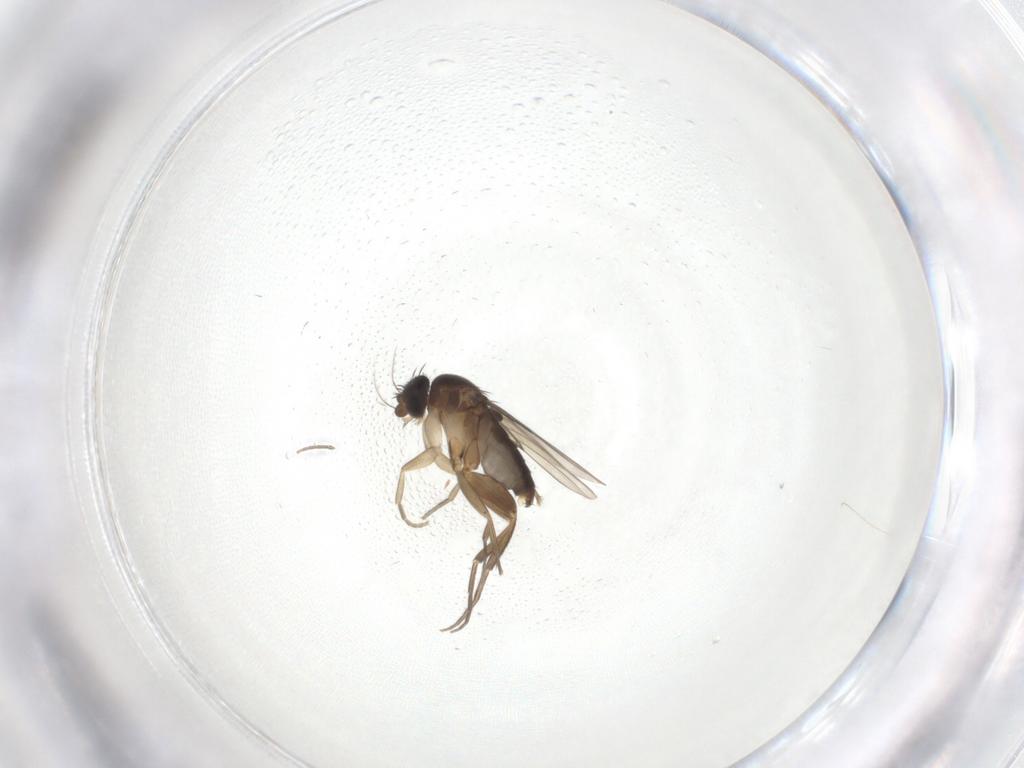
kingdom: Animalia
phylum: Arthropoda
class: Insecta
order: Diptera
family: Phoridae
